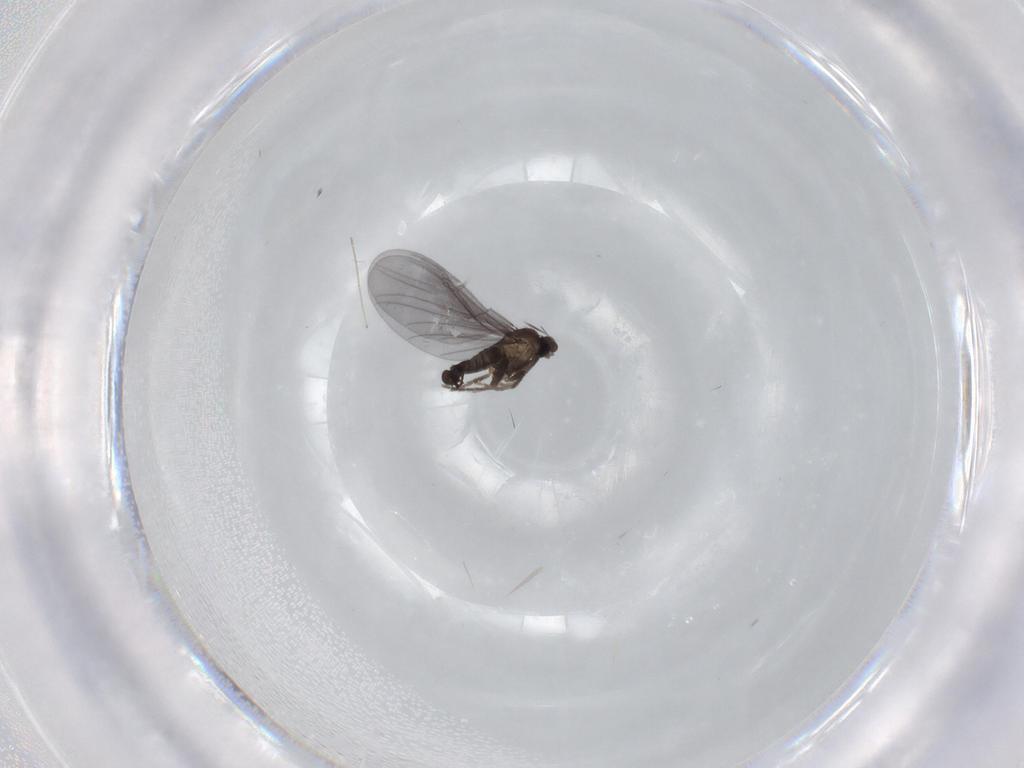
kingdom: Animalia
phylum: Arthropoda
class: Insecta
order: Diptera
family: Phoridae
